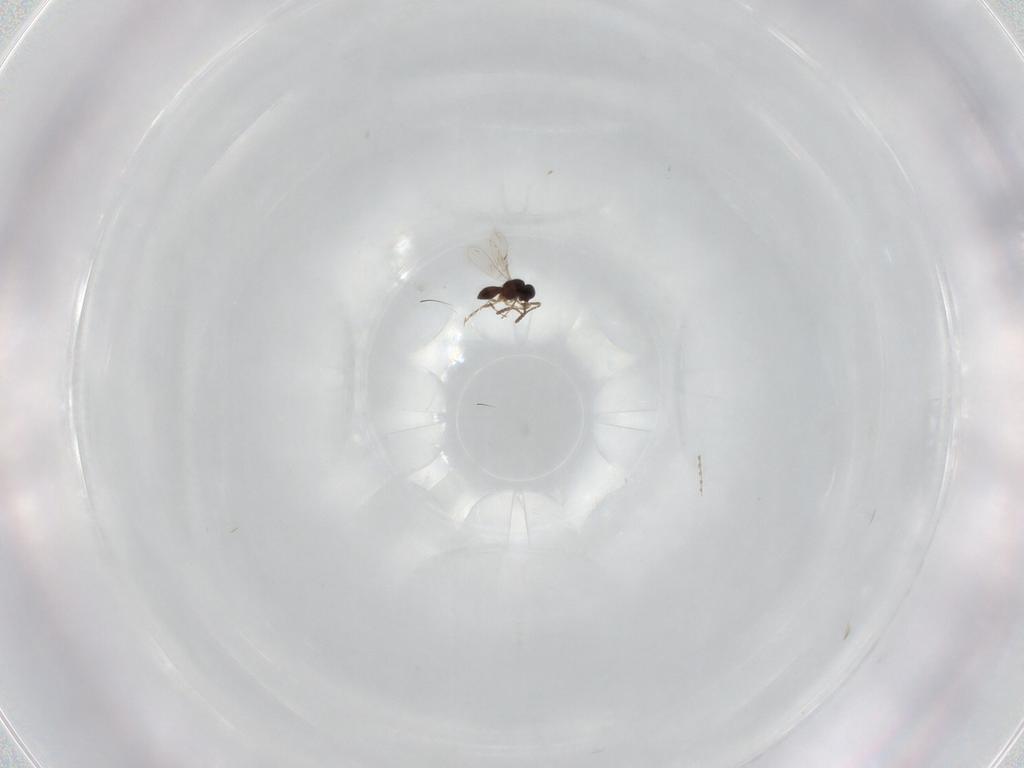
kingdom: Animalia
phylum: Arthropoda
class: Insecta
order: Hymenoptera
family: Scelionidae
